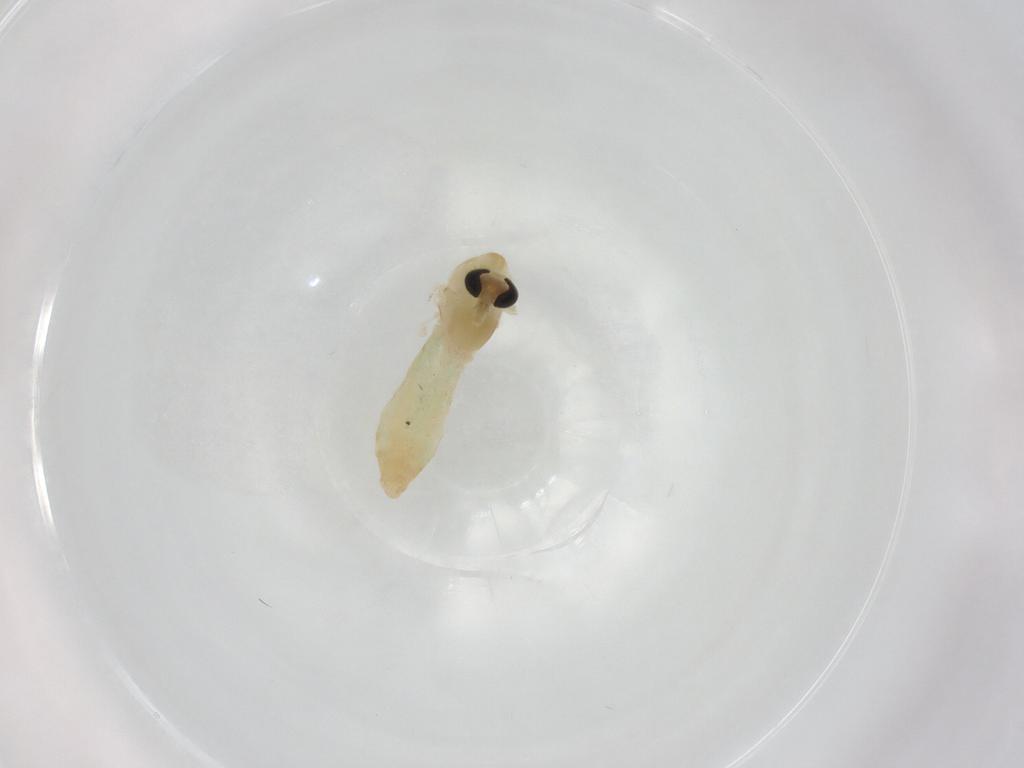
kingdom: Animalia
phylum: Arthropoda
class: Insecta
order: Diptera
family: Chironomidae
